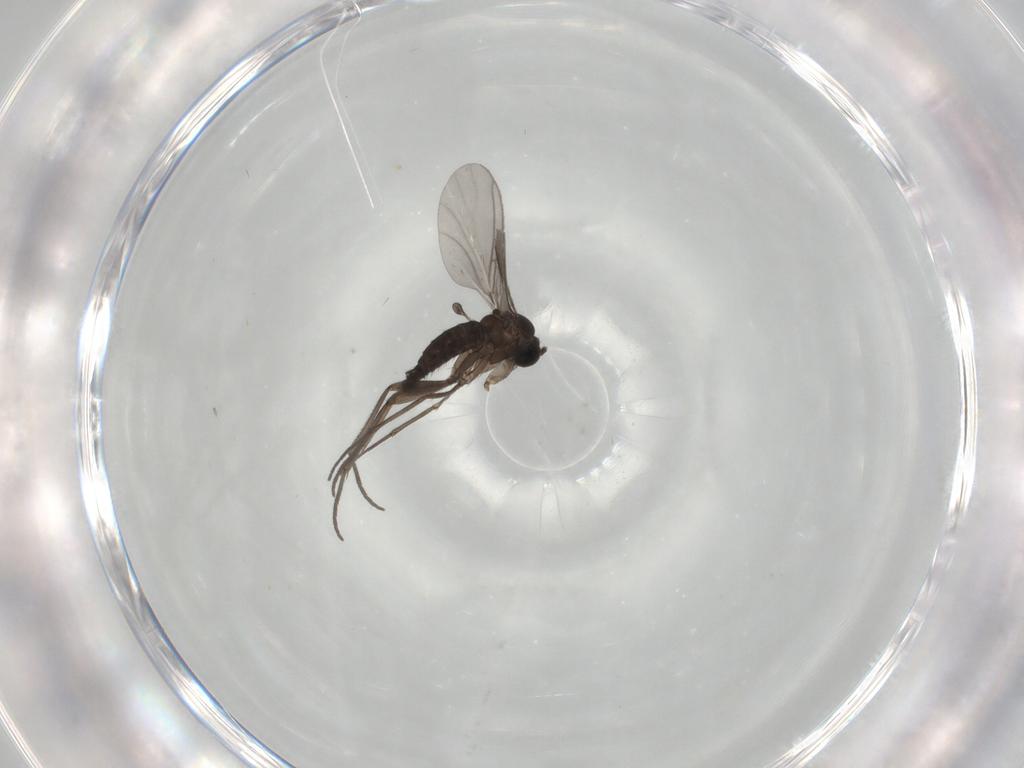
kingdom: Animalia
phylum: Arthropoda
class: Insecta
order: Diptera
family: Sciaridae
